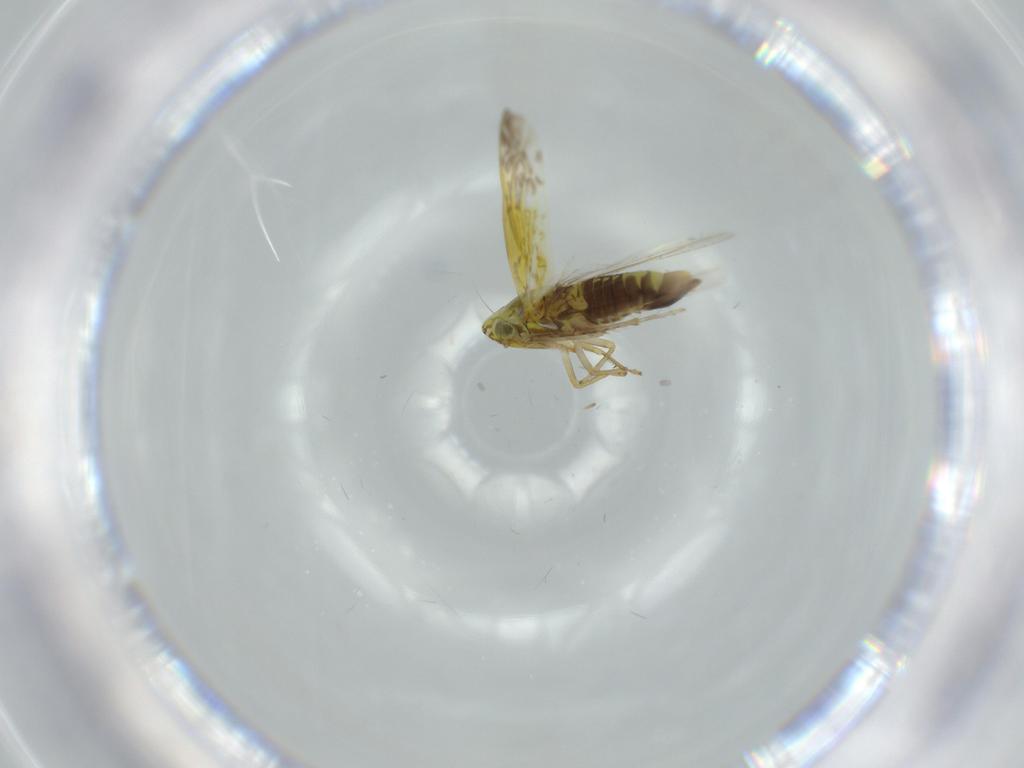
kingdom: Animalia
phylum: Arthropoda
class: Insecta
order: Hemiptera
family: Cicadellidae
